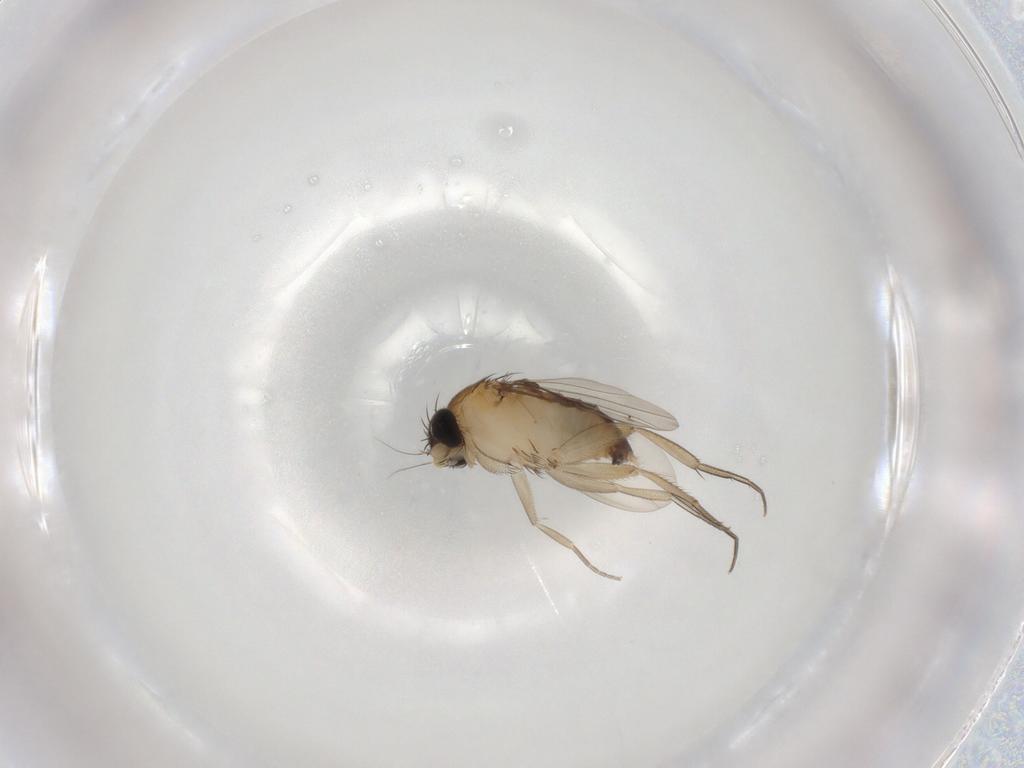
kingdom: Animalia
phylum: Arthropoda
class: Insecta
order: Diptera
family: Phoridae
